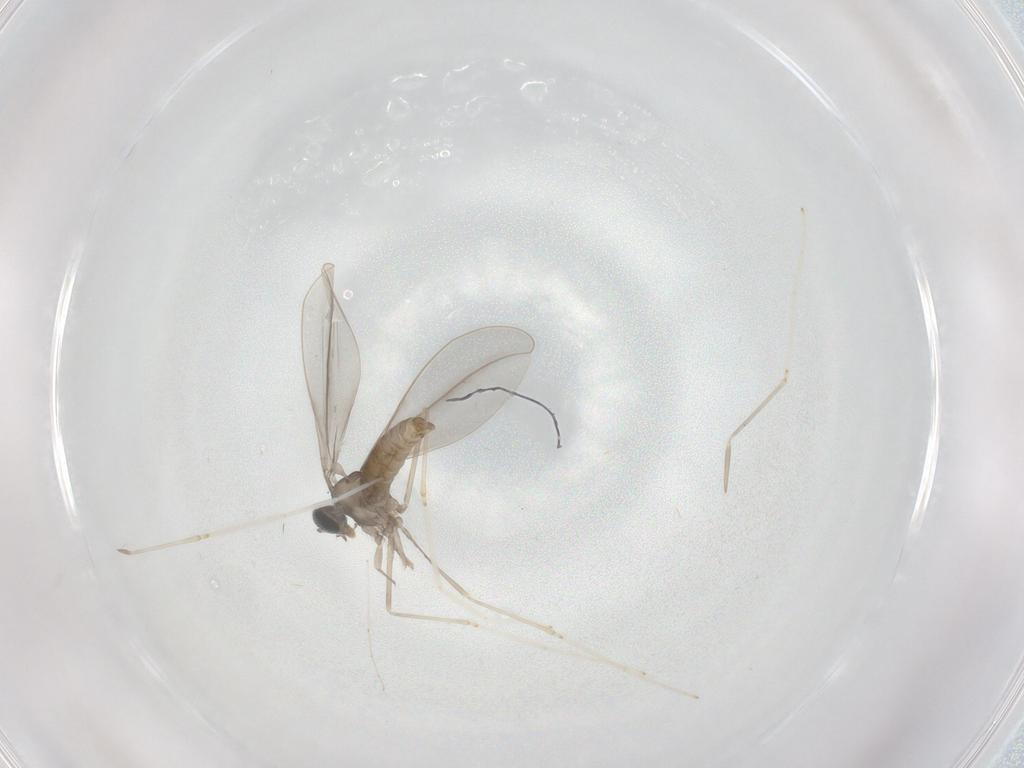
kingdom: Animalia
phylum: Arthropoda
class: Insecta
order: Diptera
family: Cecidomyiidae
